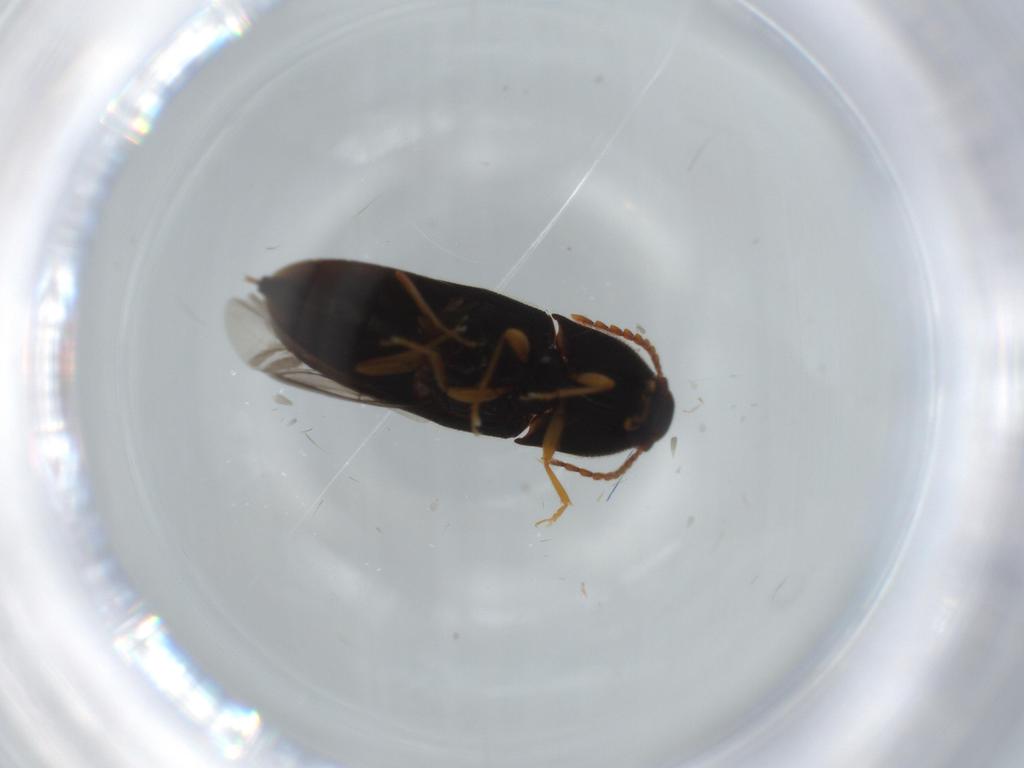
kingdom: Animalia
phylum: Arthropoda
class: Insecta
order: Coleoptera
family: Elateridae
